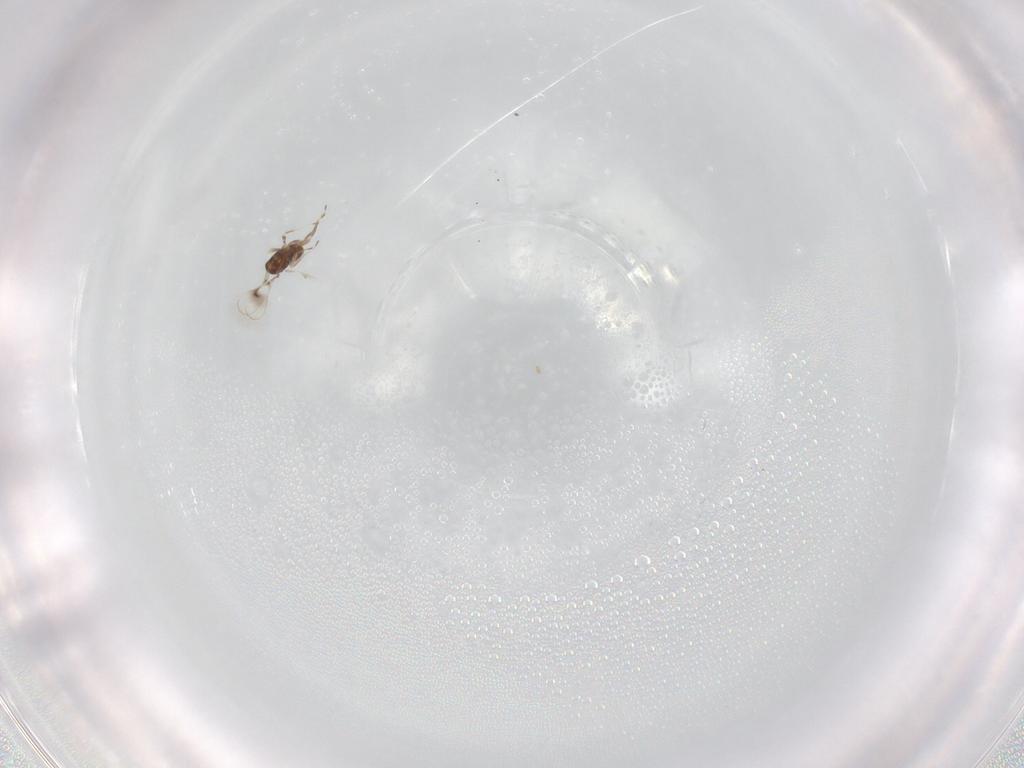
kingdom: Animalia
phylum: Arthropoda
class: Insecta
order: Hymenoptera
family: Trichogrammatidae
